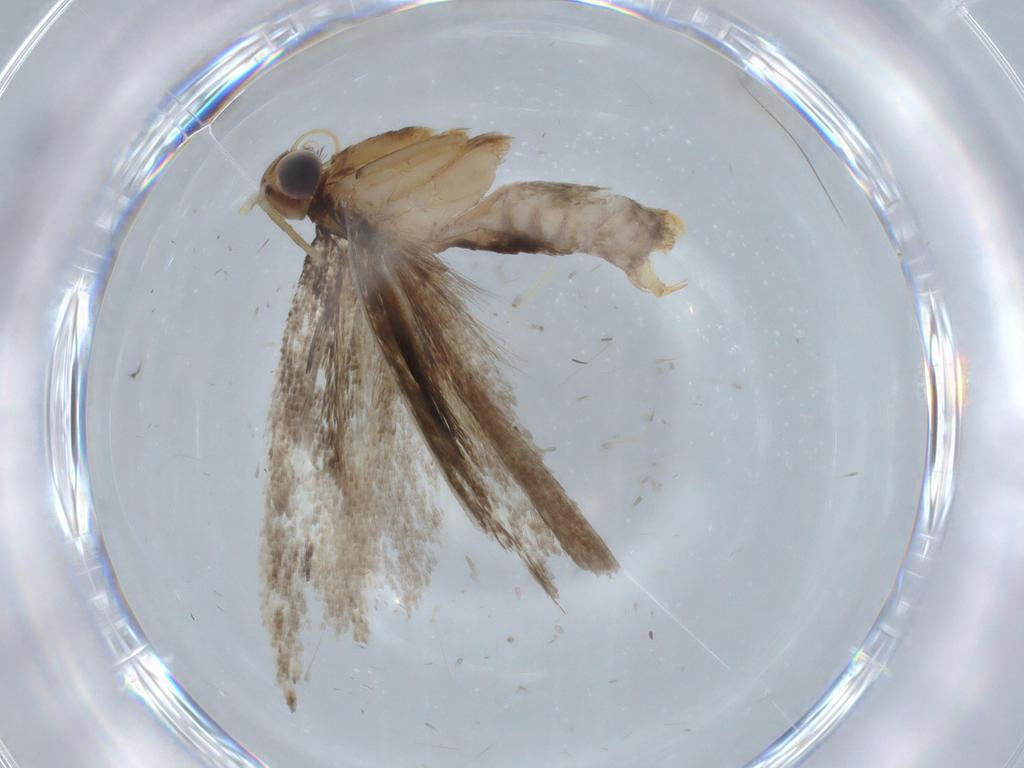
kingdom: Animalia
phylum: Arthropoda
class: Insecta
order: Lepidoptera
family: Gelechiidae
